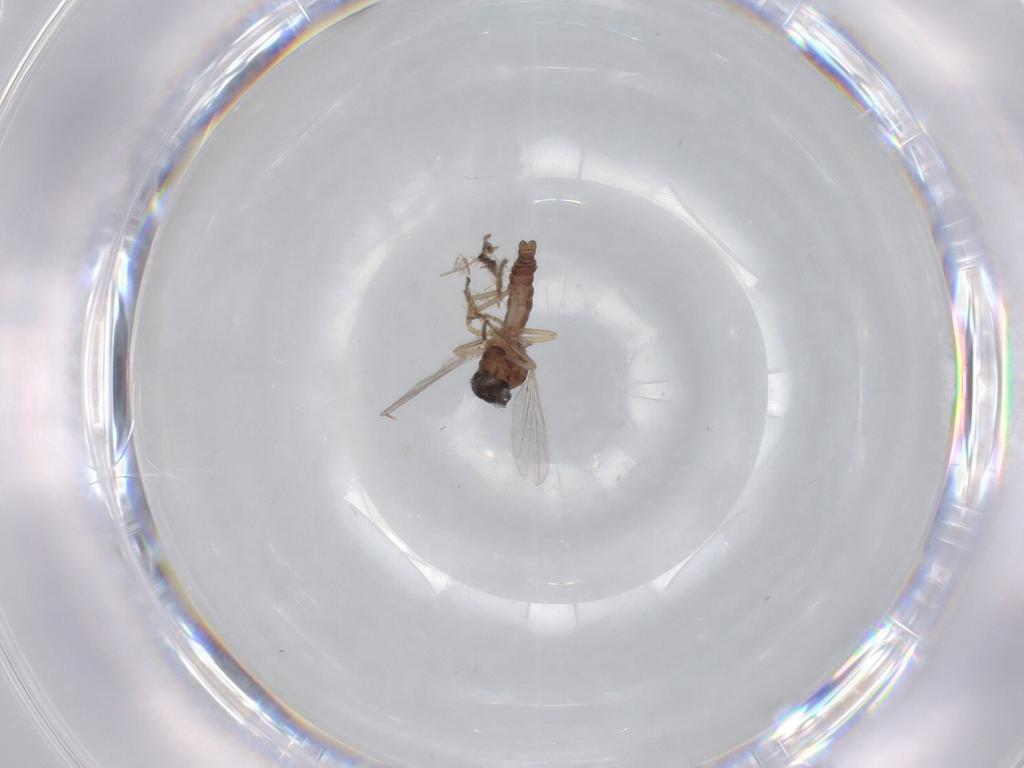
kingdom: Animalia
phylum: Arthropoda
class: Insecta
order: Diptera
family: Ceratopogonidae
